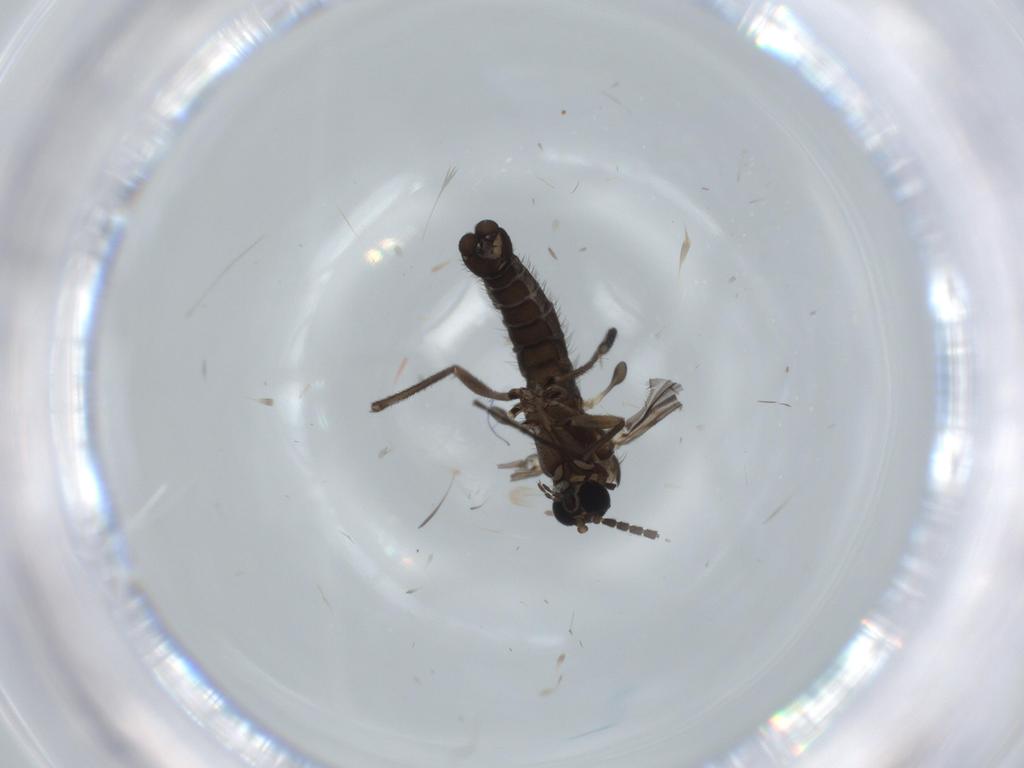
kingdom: Animalia
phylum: Arthropoda
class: Insecta
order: Diptera
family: Sciaridae
